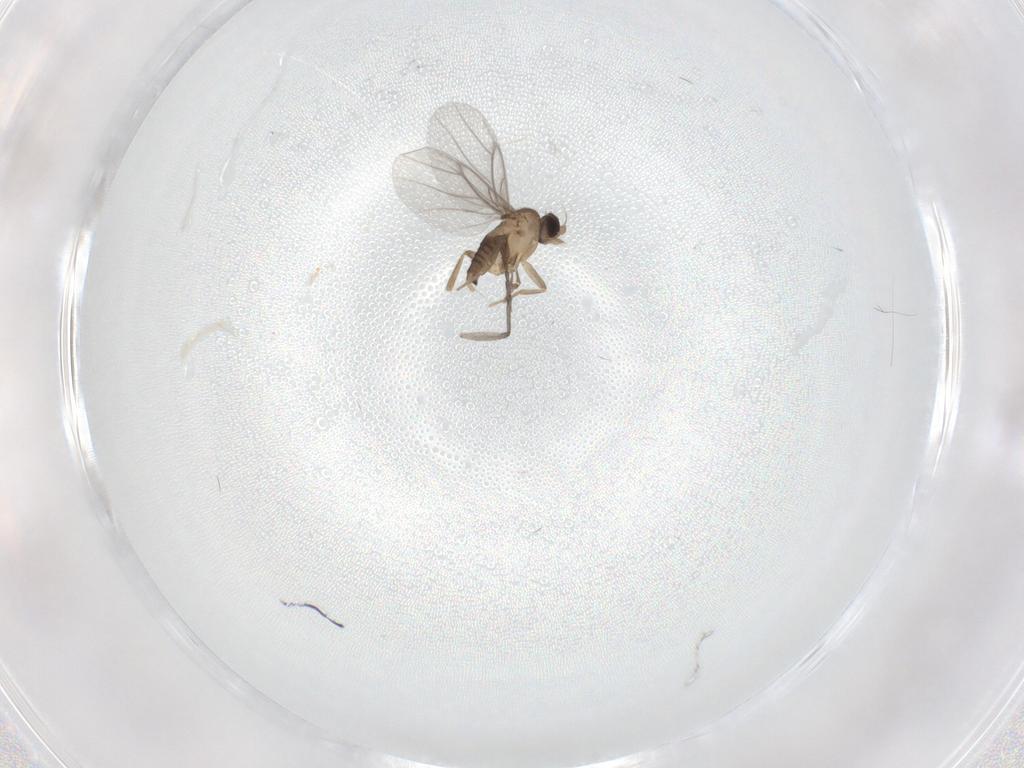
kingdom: Animalia
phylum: Arthropoda
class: Insecta
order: Diptera
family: Sciaridae
